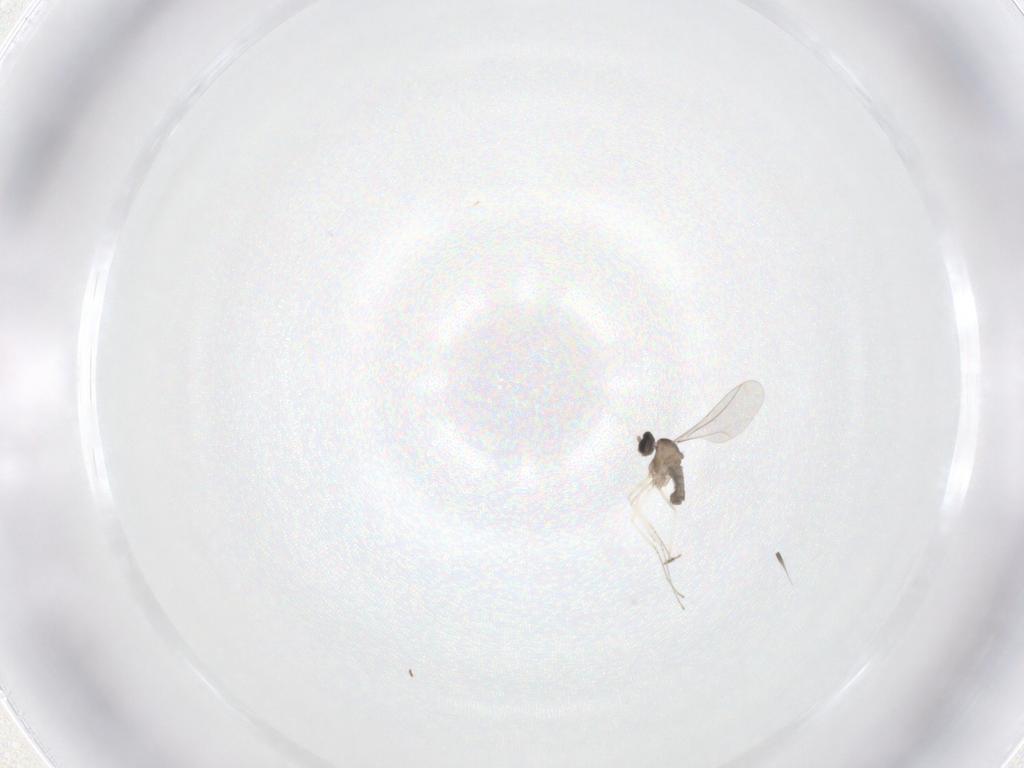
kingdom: Animalia
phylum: Arthropoda
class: Insecta
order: Diptera
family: Cecidomyiidae
